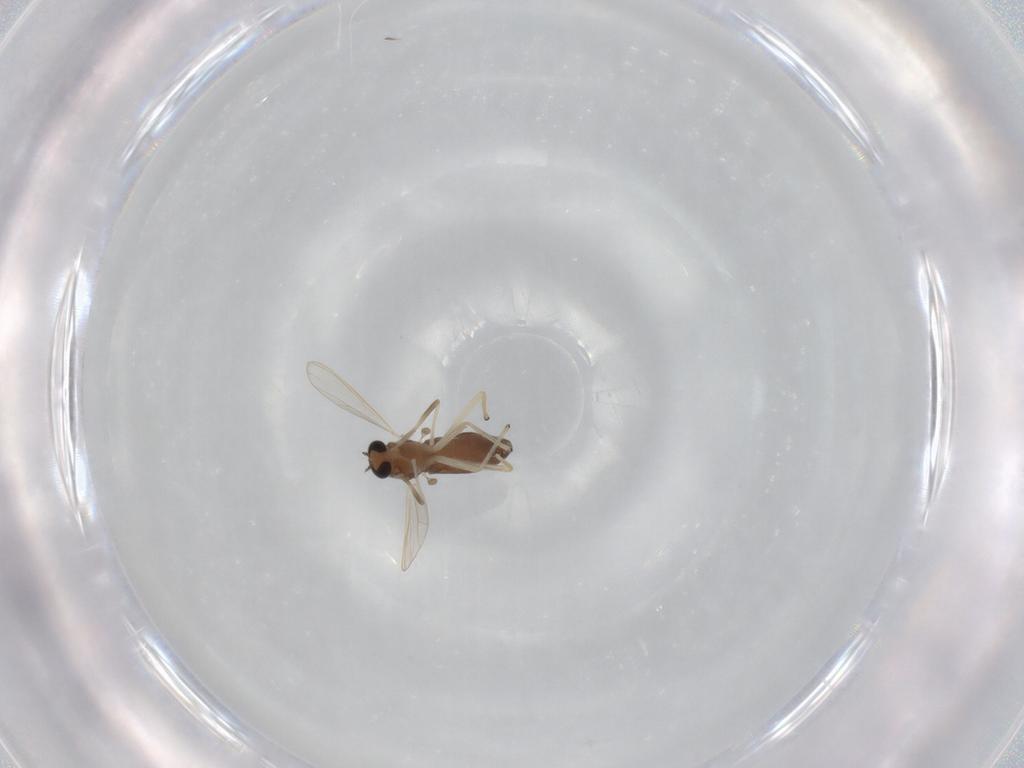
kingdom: Animalia
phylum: Arthropoda
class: Insecta
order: Diptera
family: Chironomidae
